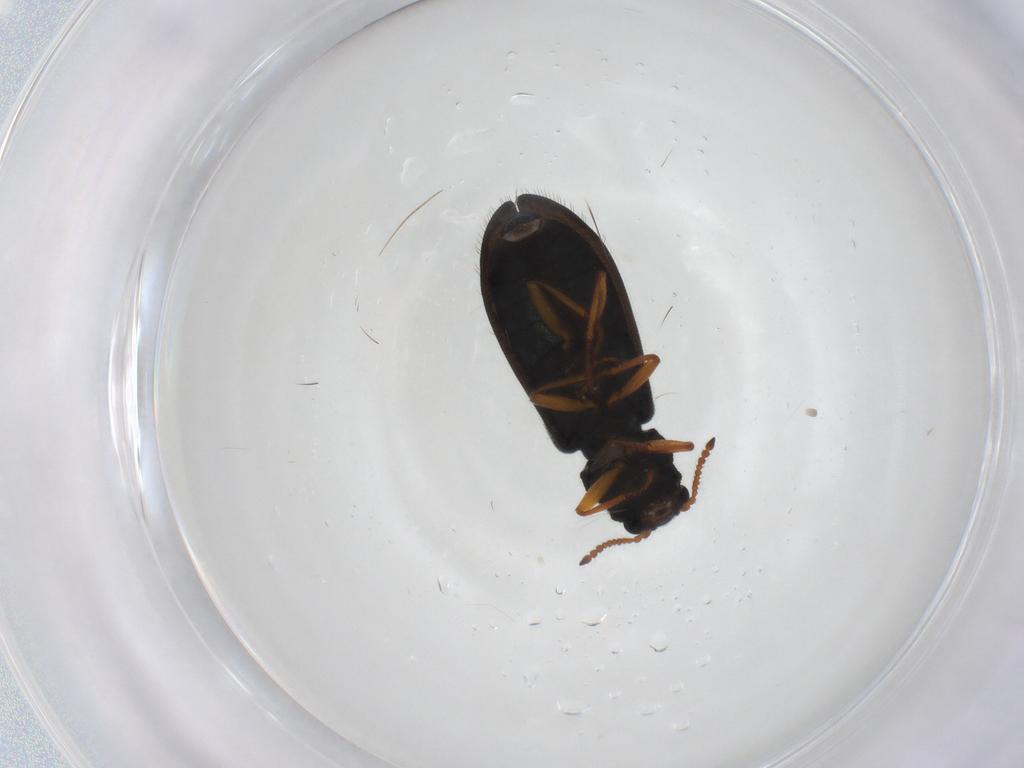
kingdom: Animalia
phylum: Arthropoda
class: Insecta
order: Coleoptera
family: Melyridae
